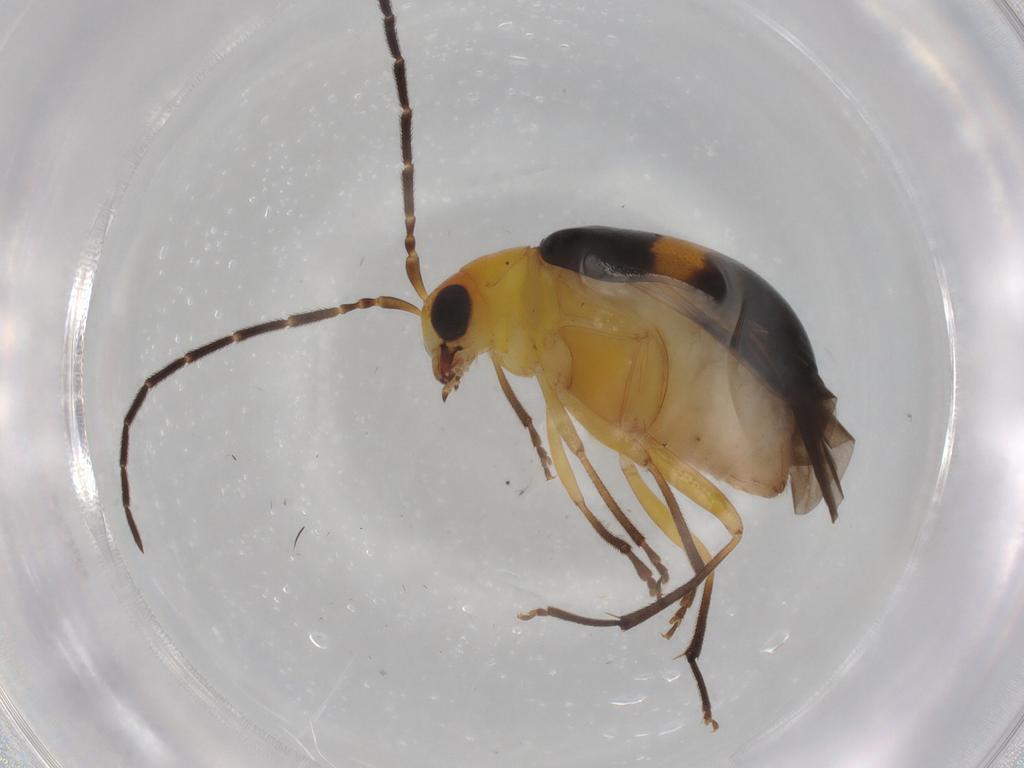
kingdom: Animalia
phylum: Arthropoda
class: Insecta
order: Coleoptera
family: Chrysomelidae
